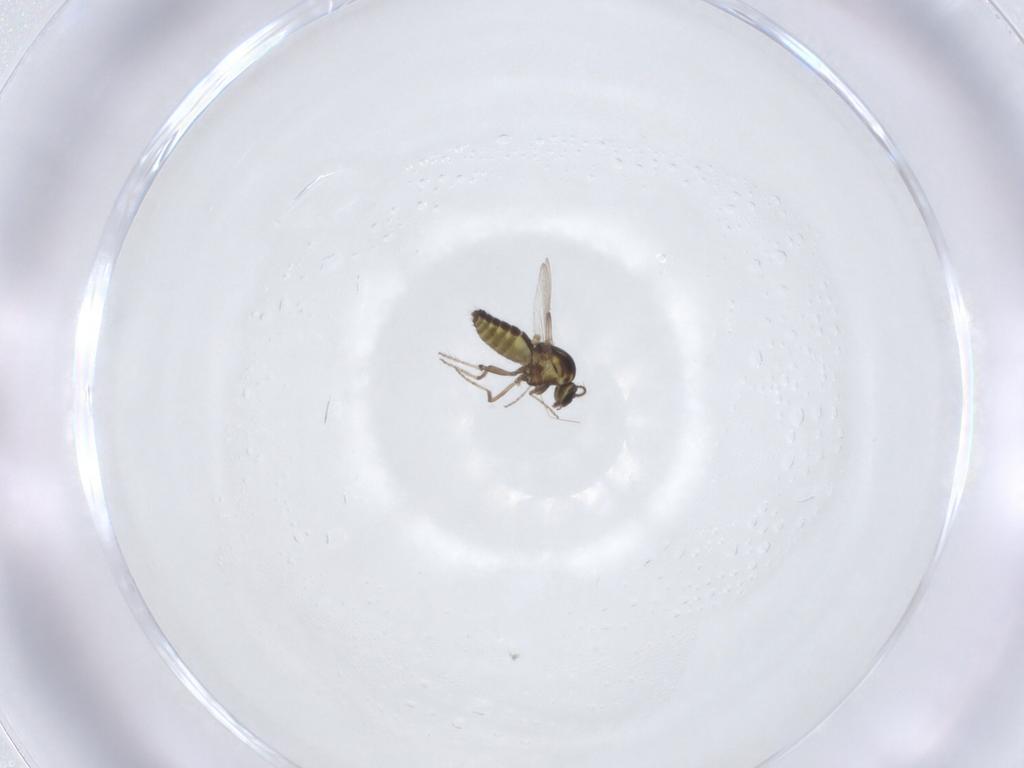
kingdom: Animalia
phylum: Arthropoda
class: Insecta
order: Diptera
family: Ceratopogonidae
